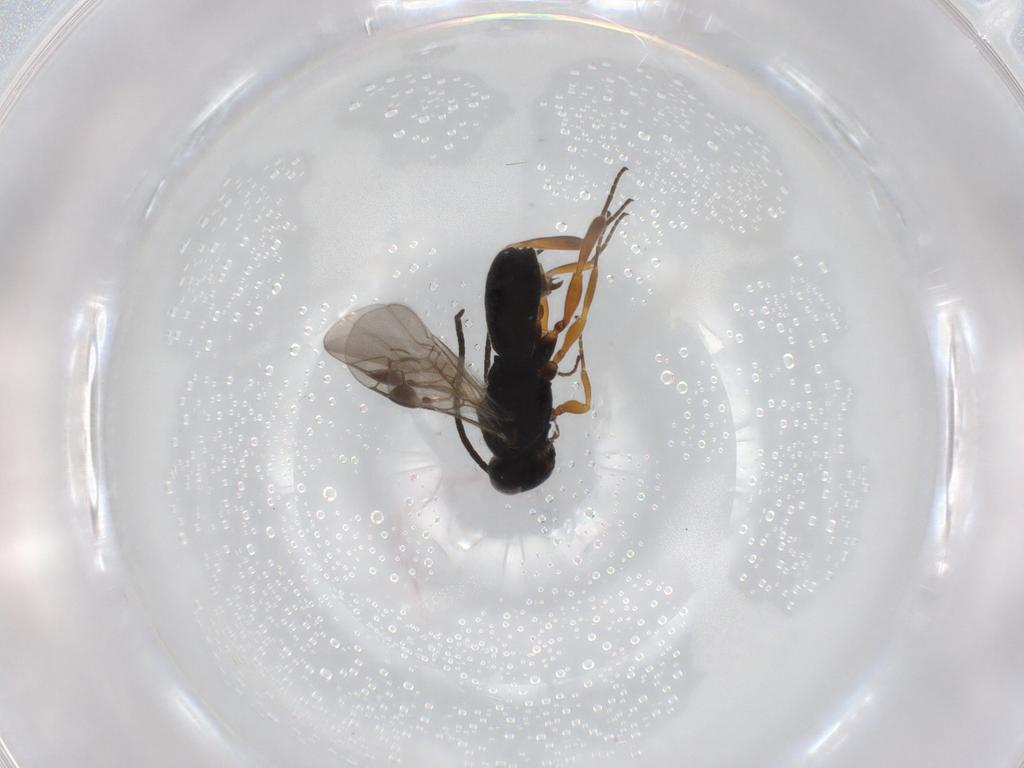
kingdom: Animalia
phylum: Arthropoda
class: Insecta
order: Hymenoptera
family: Braconidae
